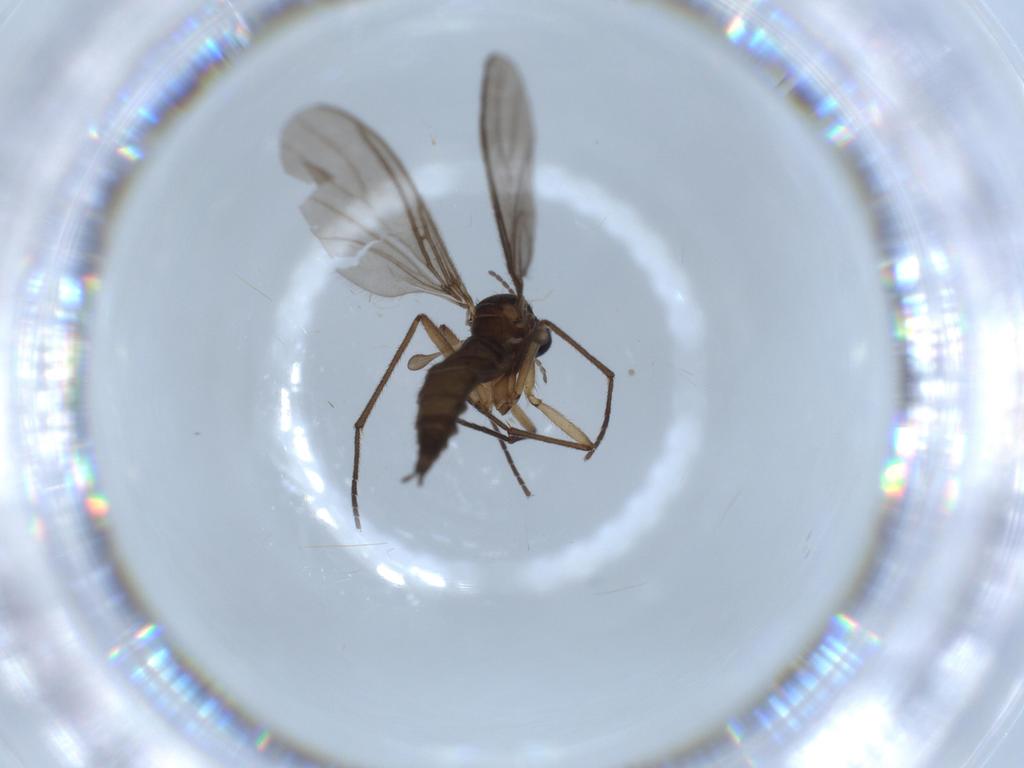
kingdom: Animalia
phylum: Arthropoda
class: Insecta
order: Diptera
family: Sciaridae
